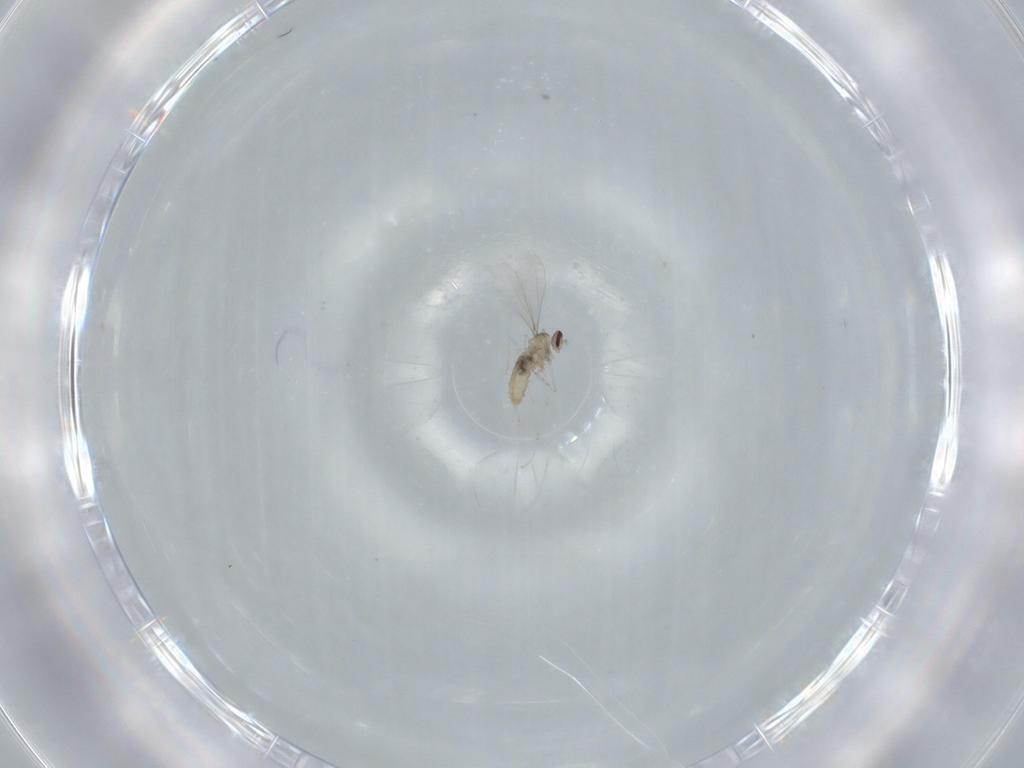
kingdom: Animalia
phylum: Arthropoda
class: Insecta
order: Diptera
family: Cecidomyiidae
